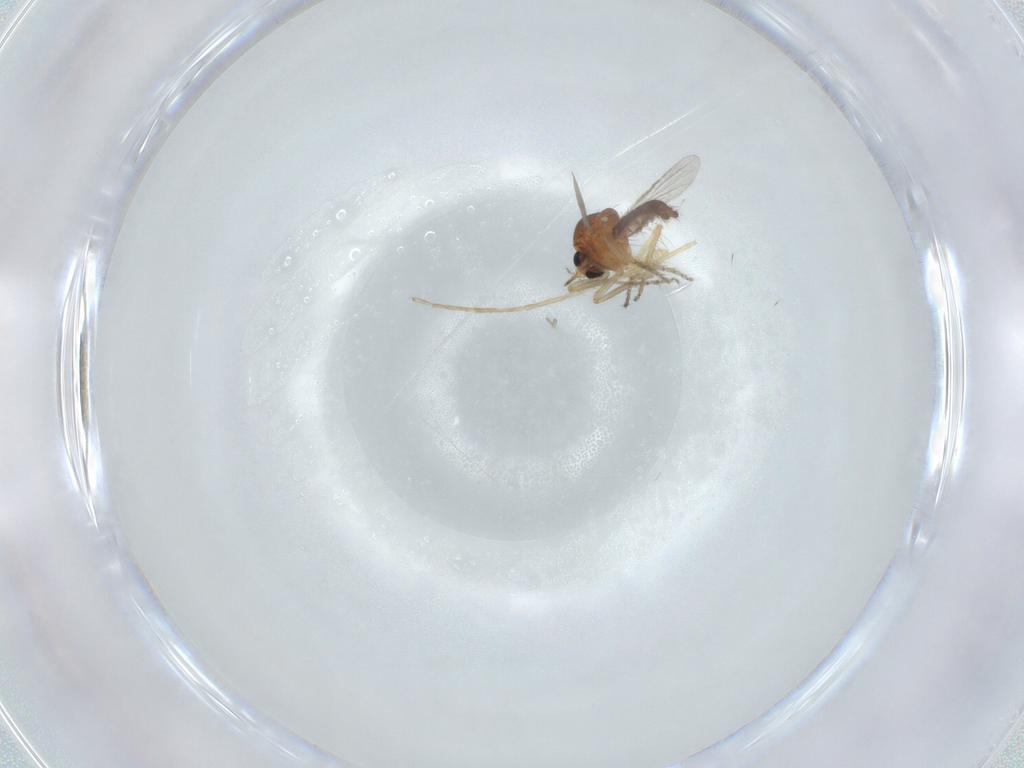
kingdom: Animalia
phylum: Arthropoda
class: Insecta
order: Diptera
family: Ceratopogonidae
